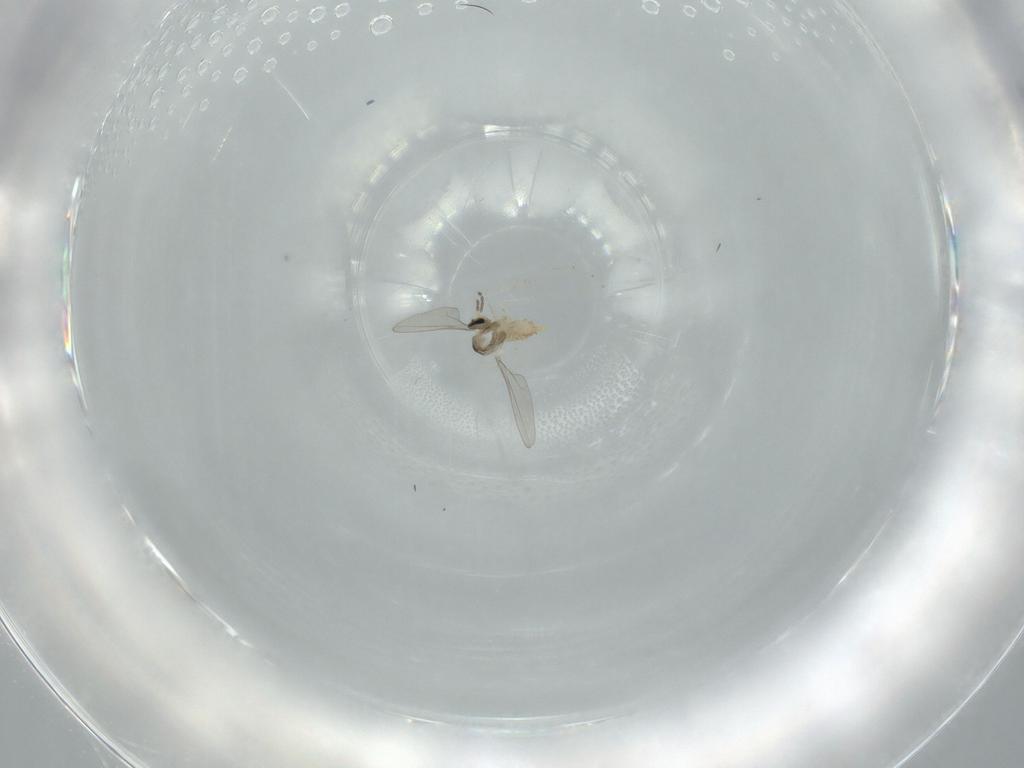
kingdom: Animalia
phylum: Arthropoda
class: Insecta
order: Diptera
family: Cecidomyiidae
